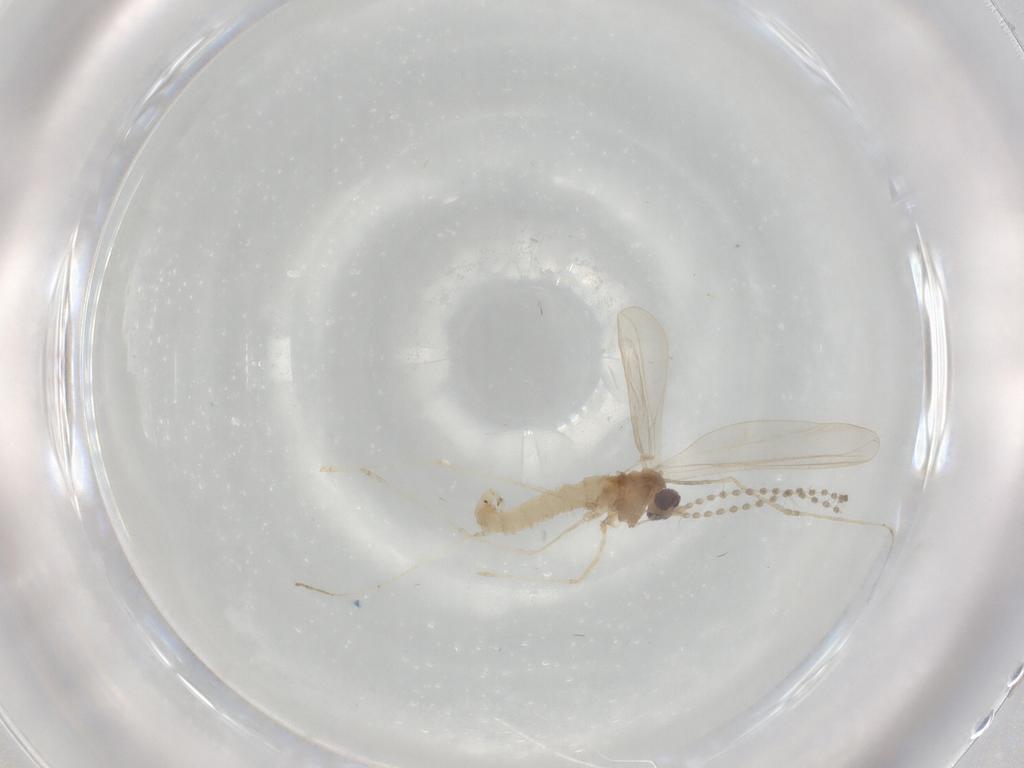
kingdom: Animalia
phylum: Arthropoda
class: Insecta
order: Diptera
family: Cecidomyiidae
